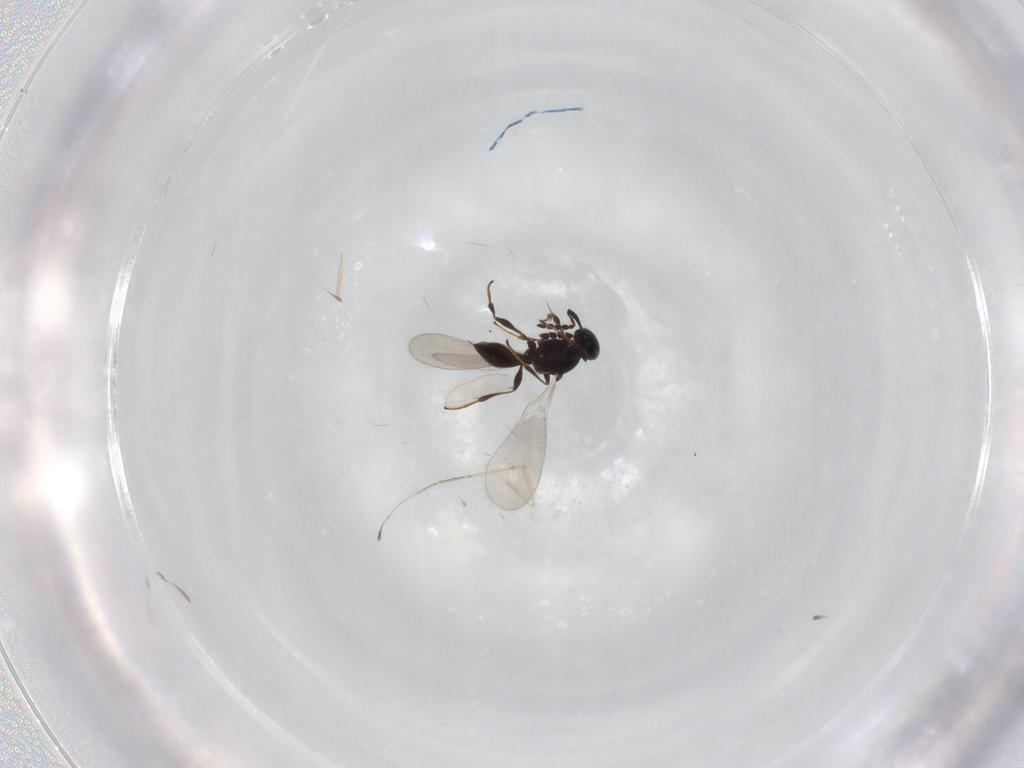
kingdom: Animalia
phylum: Arthropoda
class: Insecta
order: Hymenoptera
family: Platygastridae
